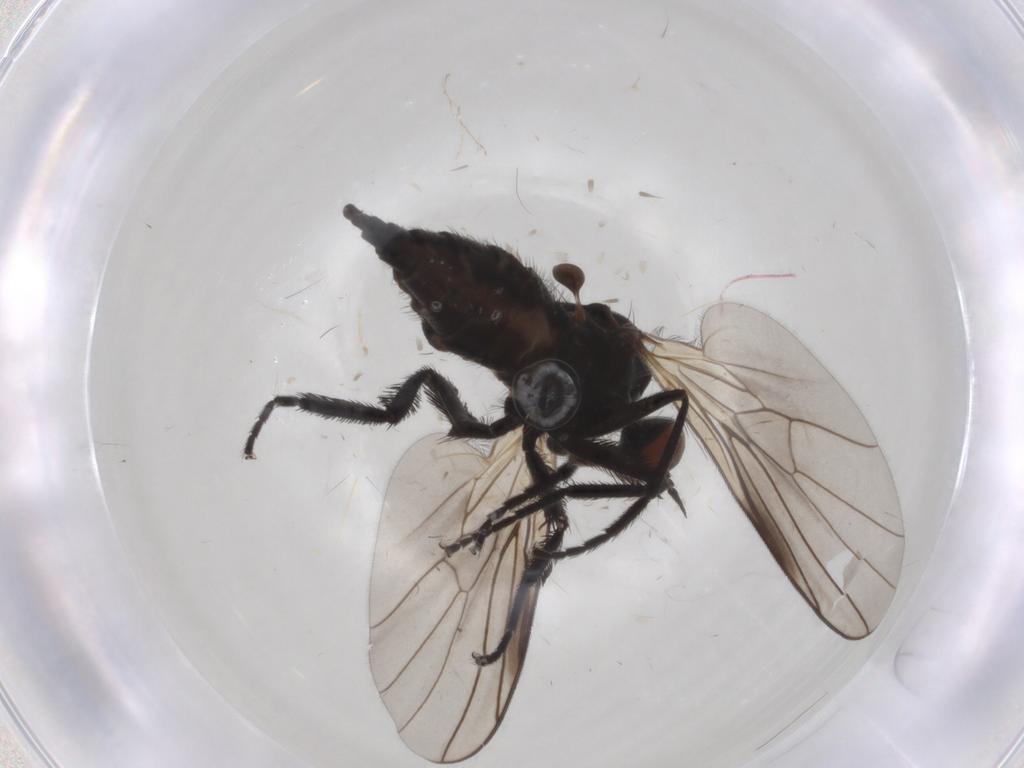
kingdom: Animalia
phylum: Arthropoda
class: Insecta
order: Diptera
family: Empididae
